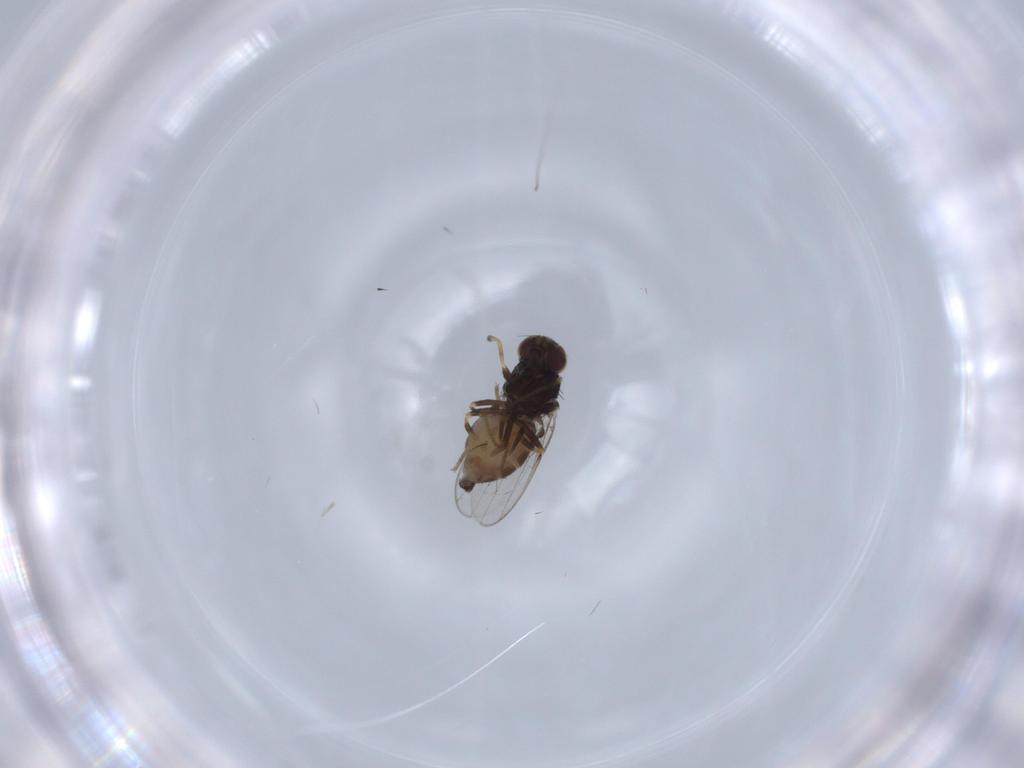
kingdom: Animalia
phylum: Arthropoda
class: Insecta
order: Diptera
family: Chloropidae
